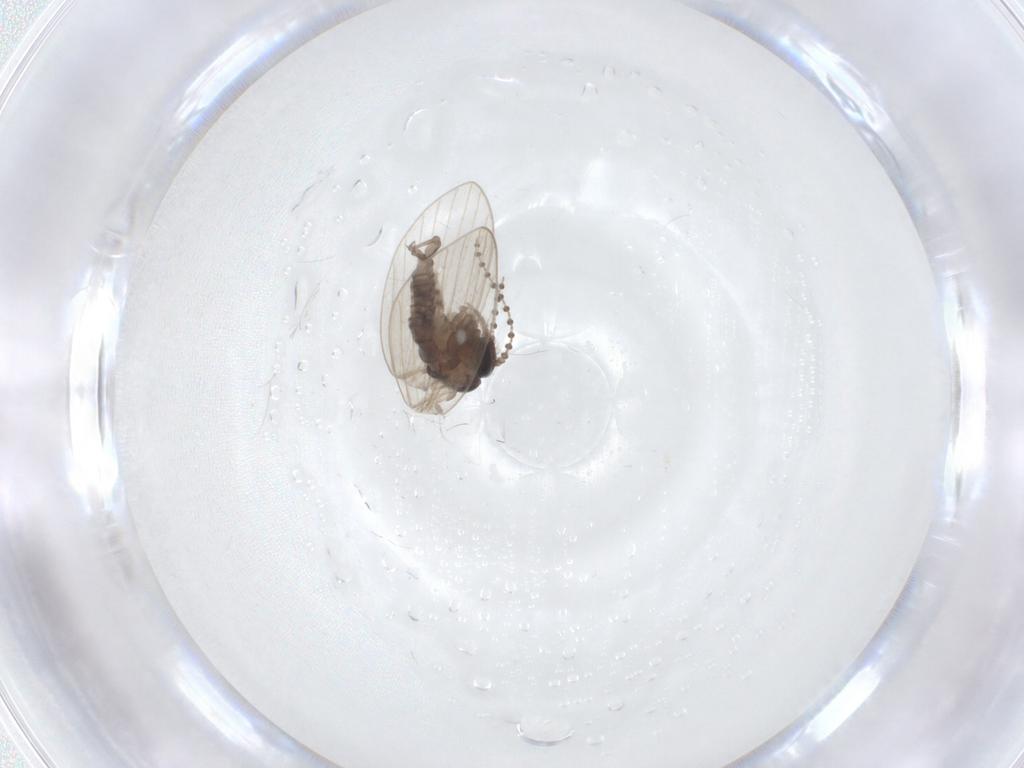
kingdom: Animalia
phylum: Arthropoda
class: Insecta
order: Diptera
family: Psychodidae
